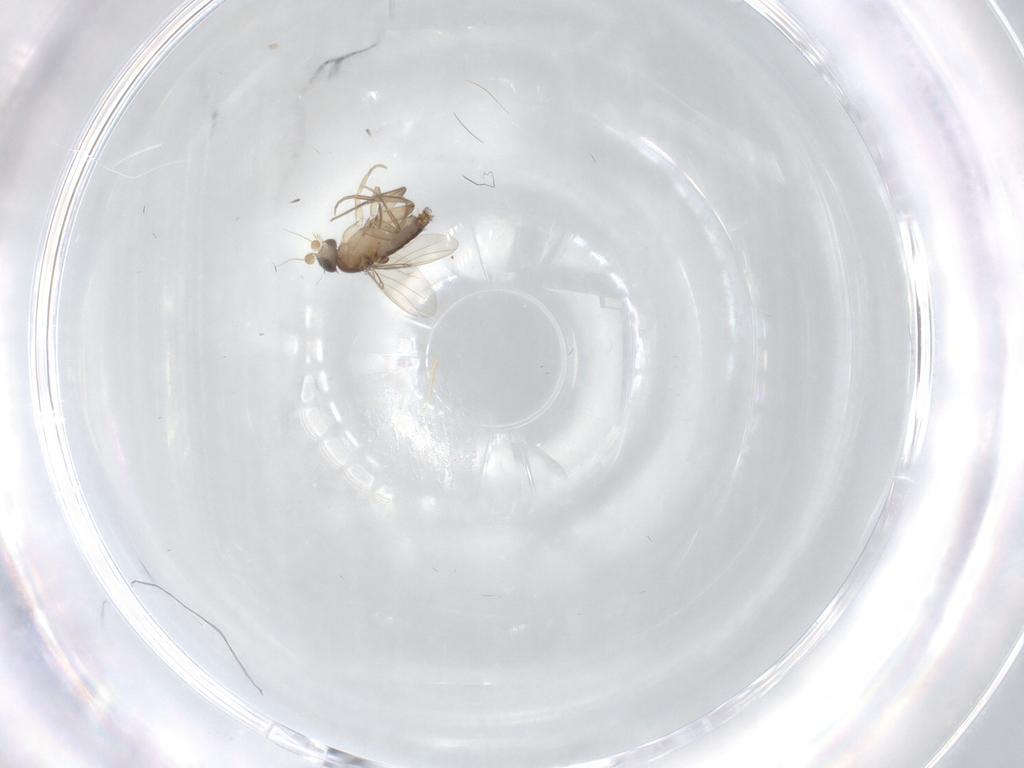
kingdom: Animalia
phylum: Arthropoda
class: Insecta
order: Diptera
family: Phoridae
